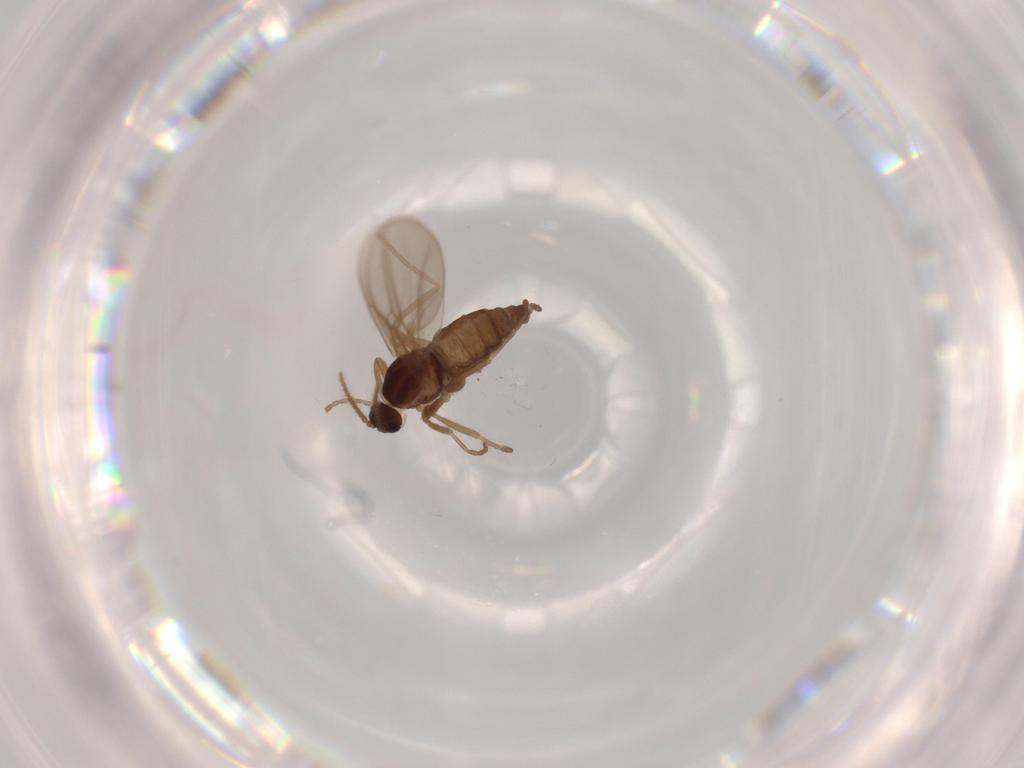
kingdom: Animalia
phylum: Arthropoda
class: Insecta
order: Diptera
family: Cecidomyiidae
